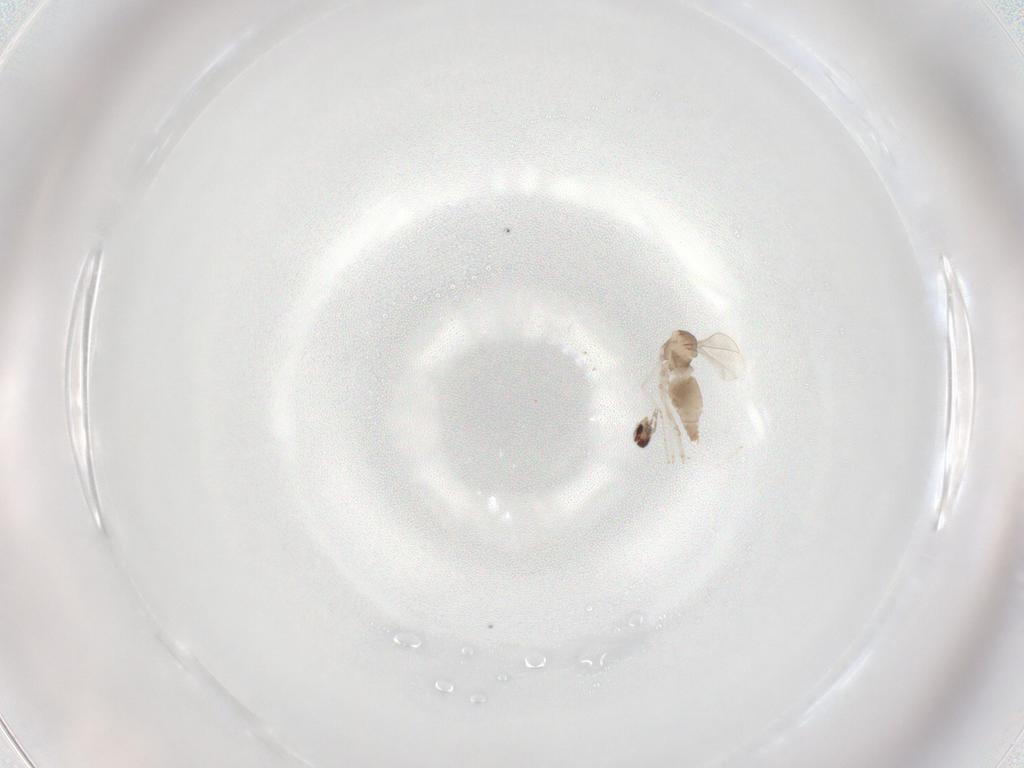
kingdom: Animalia
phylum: Arthropoda
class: Insecta
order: Diptera
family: Cecidomyiidae
